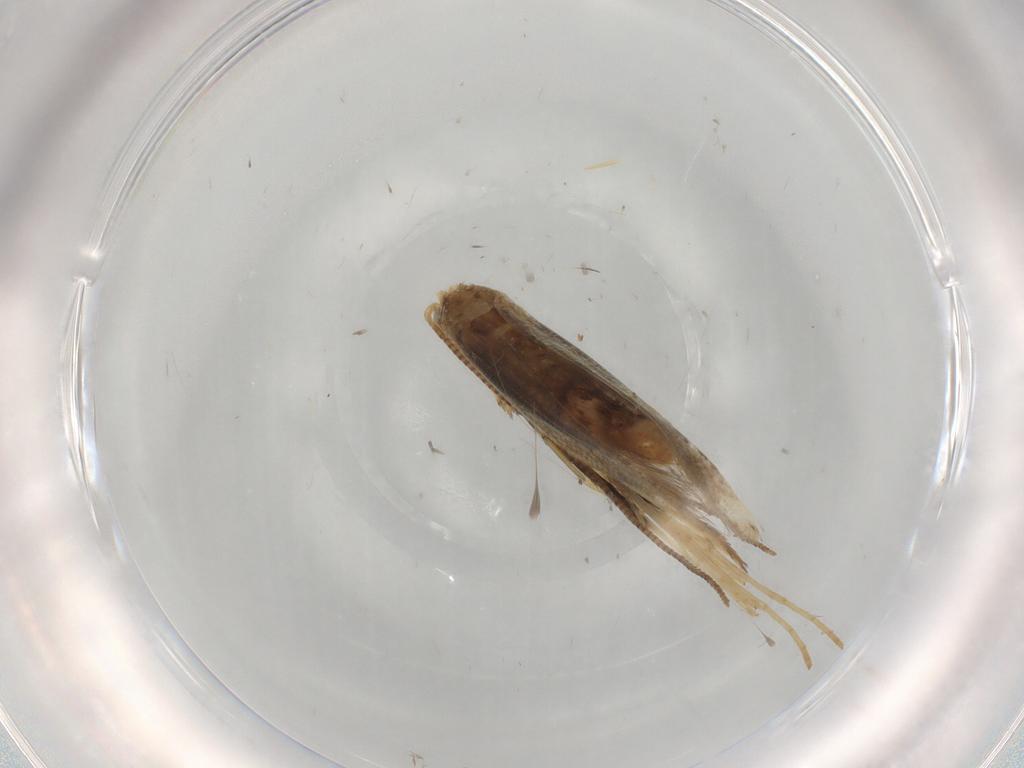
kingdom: Animalia
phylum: Arthropoda
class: Insecta
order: Lepidoptera
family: Gracillariidae
